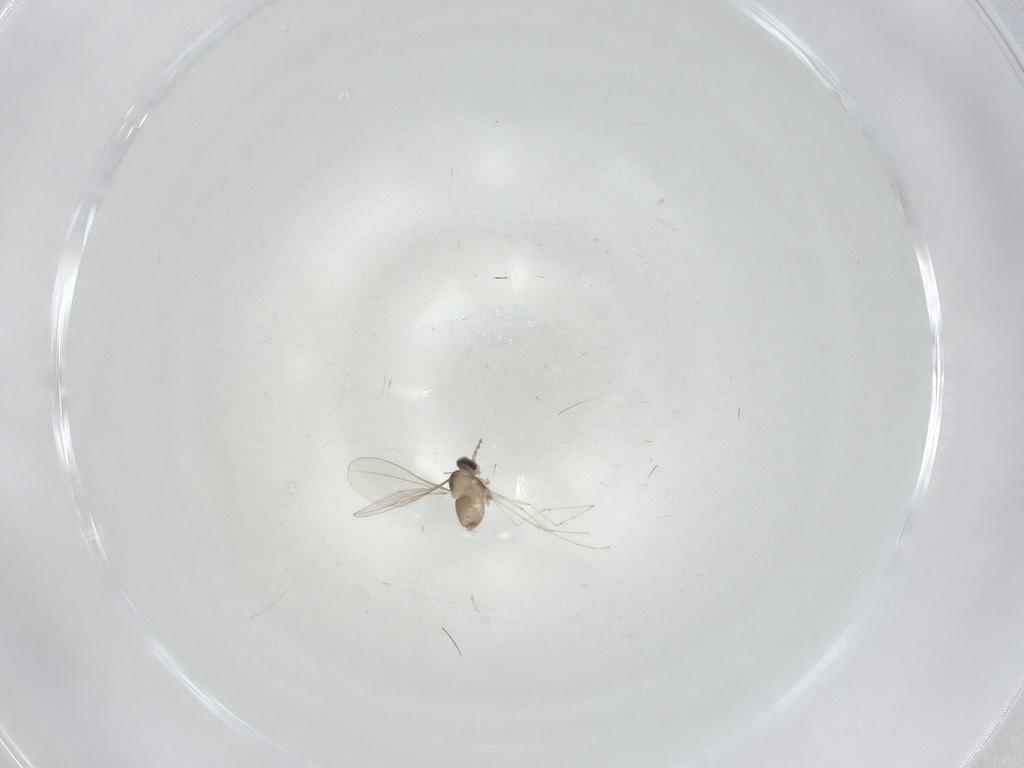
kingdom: Animalia
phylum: Arthropoda
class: Insecta
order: Diptera
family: Cecidomyiidae
